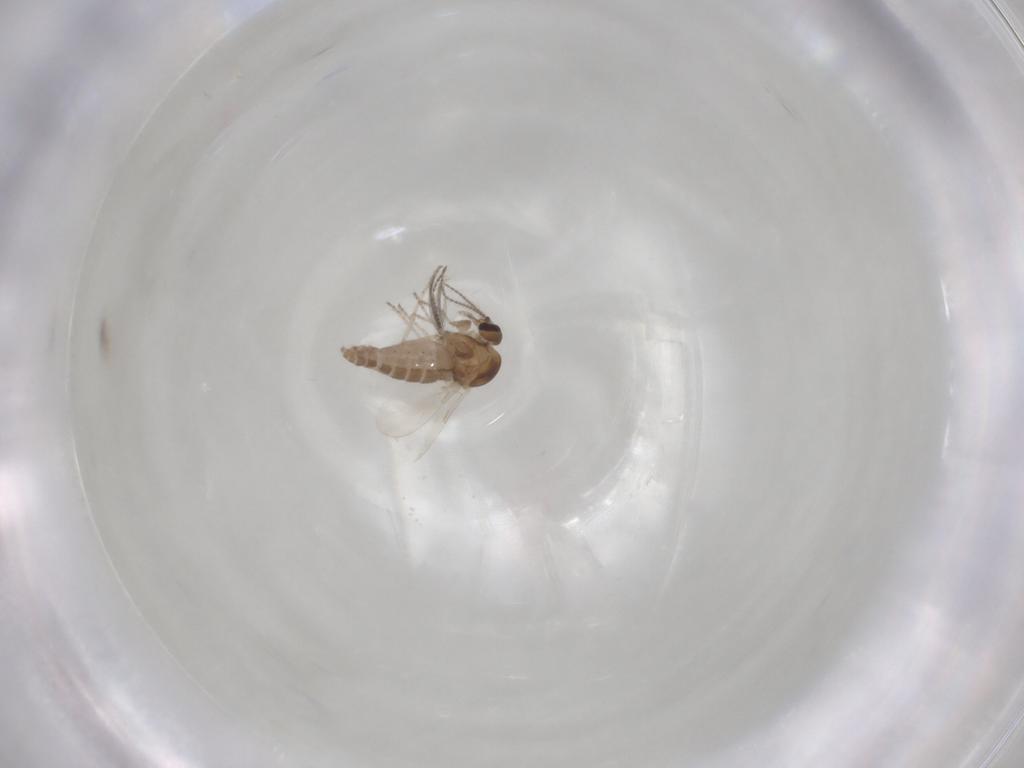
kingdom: Animalia
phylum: Arthropoda
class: Insecta
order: Diptera
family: Ceratopogonidae
